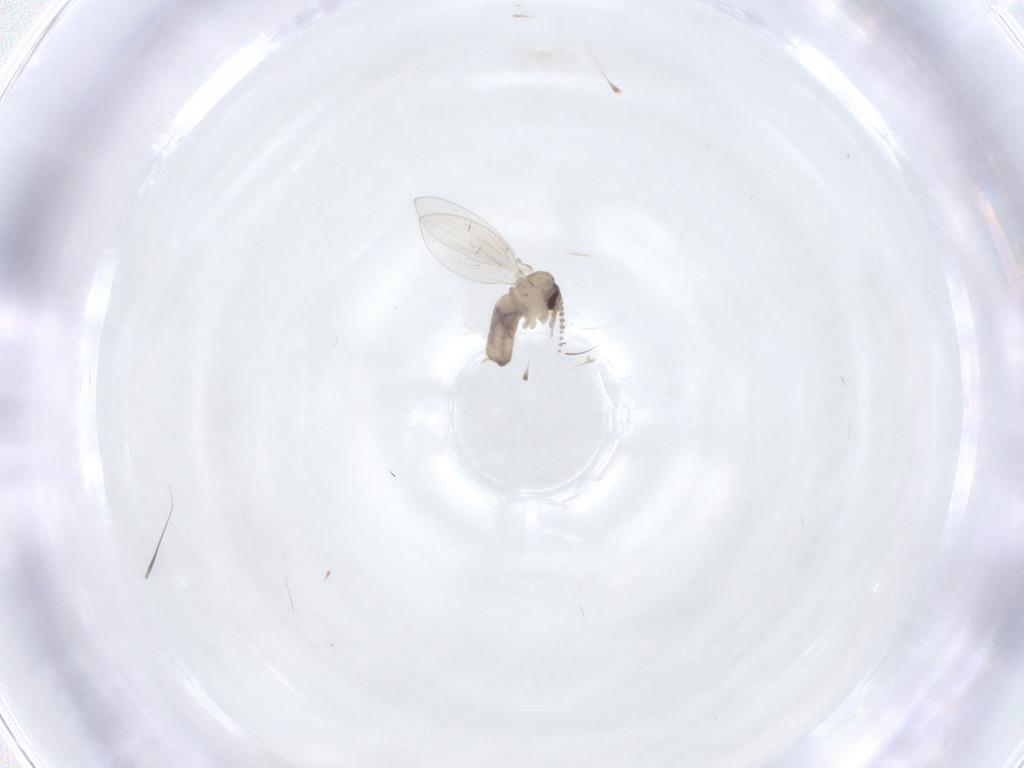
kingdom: Animalia
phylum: Arthropoda
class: Insecta
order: Diptera
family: Psychodidae
